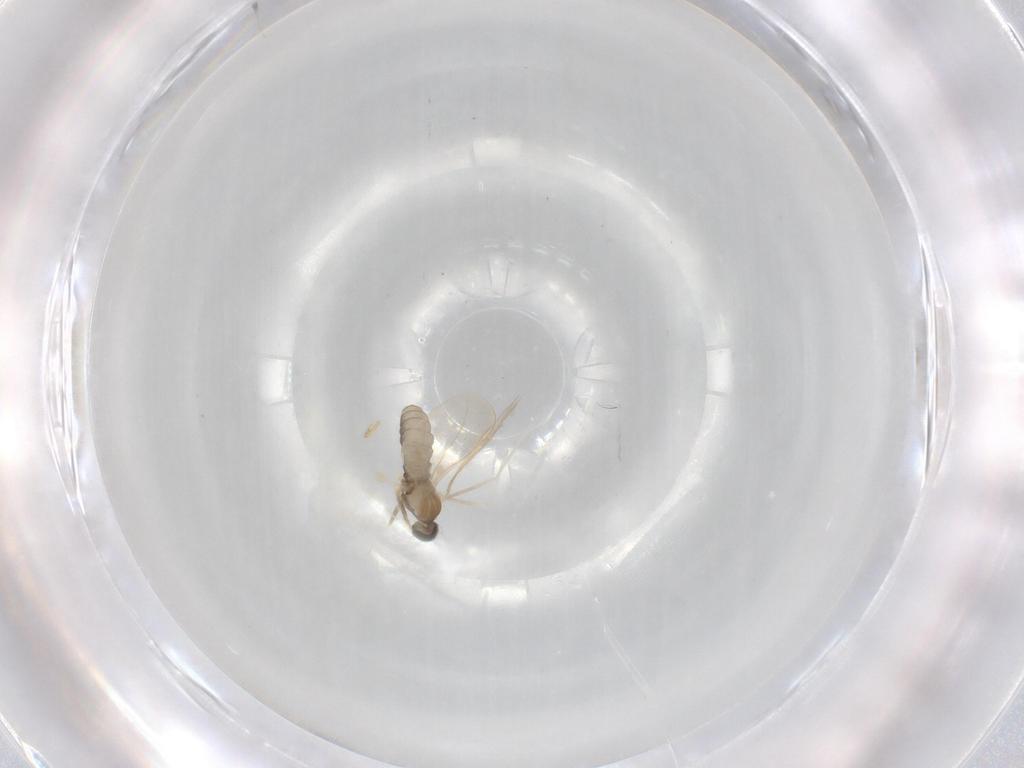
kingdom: Animalia
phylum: Arthropoda
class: Insecta
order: Diptera
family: Cecidomyiidae
